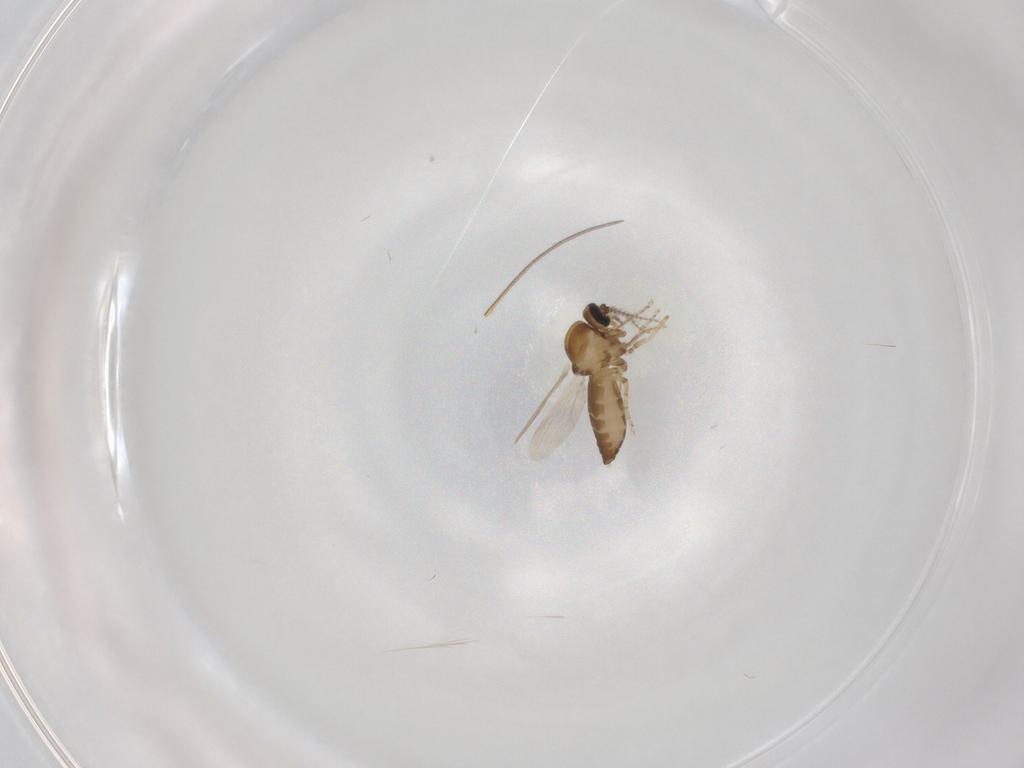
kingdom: Animalia
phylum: Arthropoda
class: Insecta
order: Diptera
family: Ceratopogonidae
